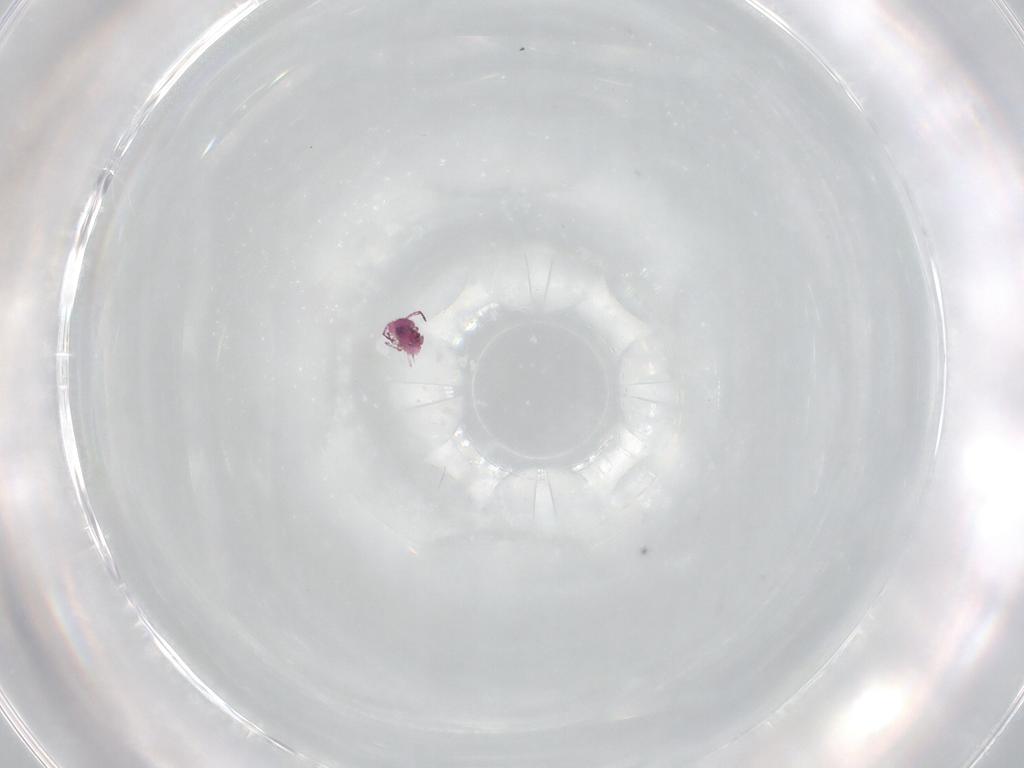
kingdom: Animalia
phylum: Arthropoda
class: Collembola
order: Symphypleona
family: Sminthurididae
